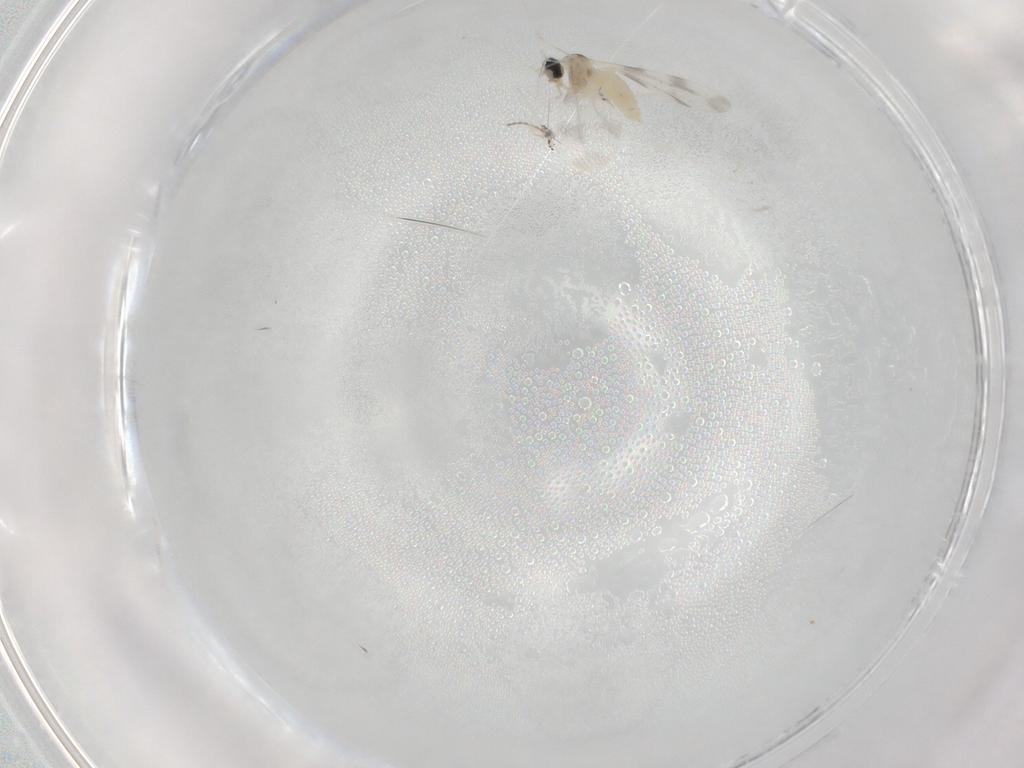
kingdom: Animalia
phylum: Arthropoda
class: Insecta
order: Diptera
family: Cecidomyiidae
